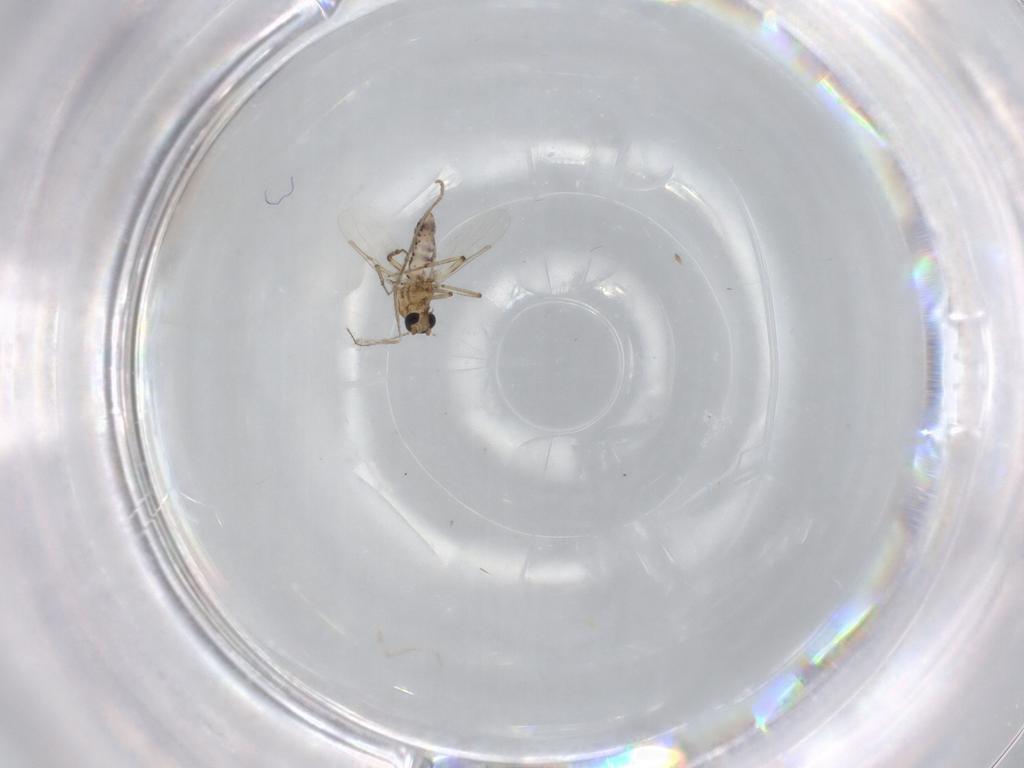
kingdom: Animalia
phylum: Arthropoda
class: Insecta
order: Diptera
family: Ceratopogonidae
